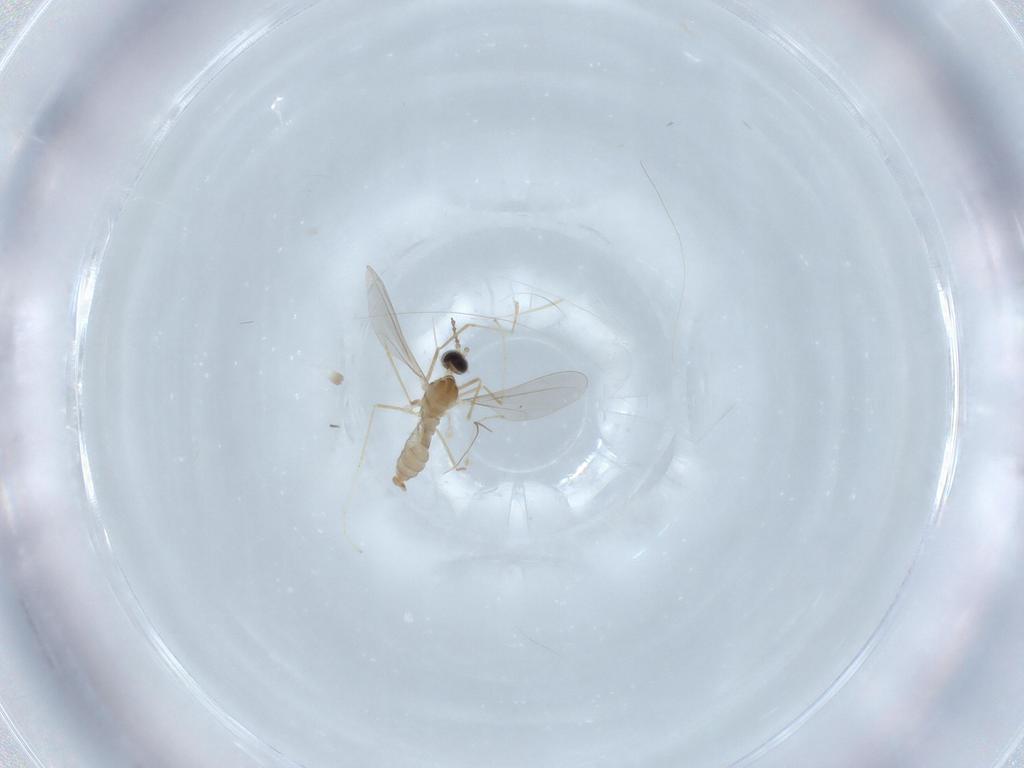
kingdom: Animalia
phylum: Arthropoda
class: Insecta
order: Diptera
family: Cecidomyiidae
